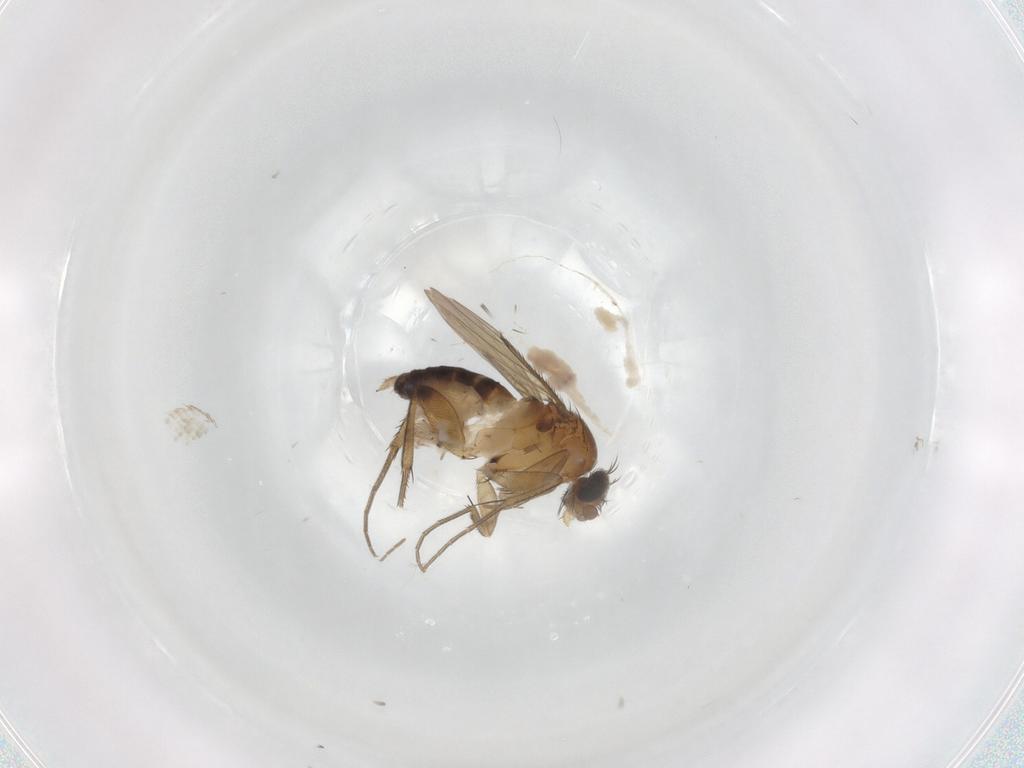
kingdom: Animalia
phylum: Arthropoda
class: Insecta
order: Diptera
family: Phoridae
